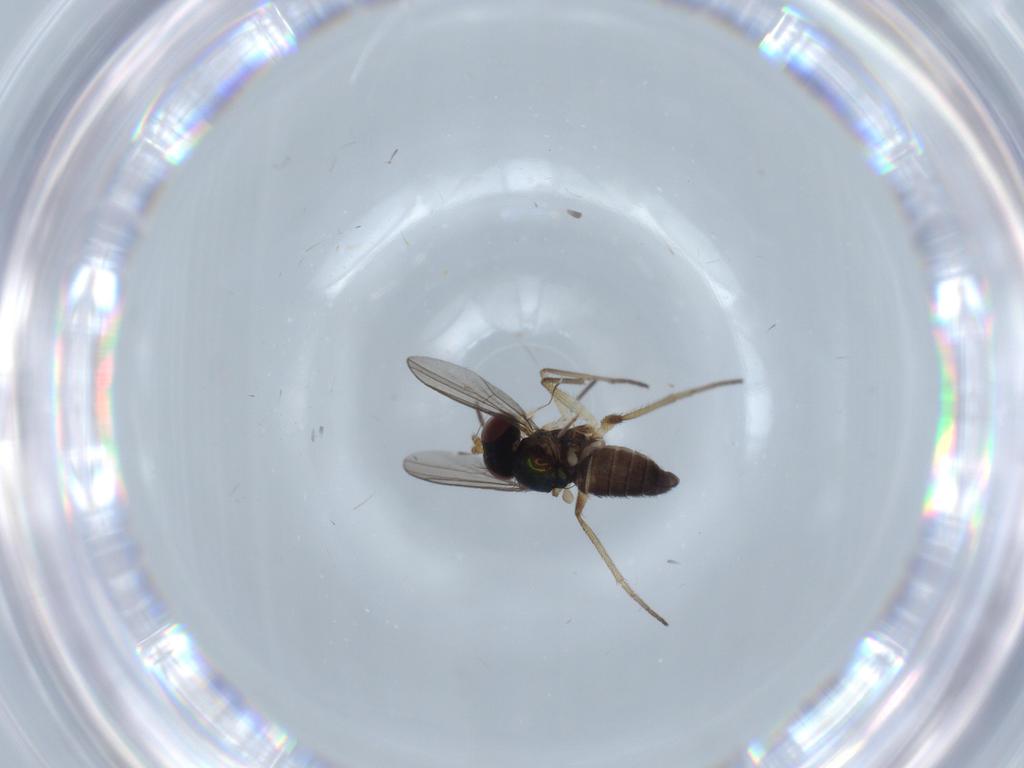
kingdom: Animalia
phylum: Arthropoda
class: Insecta
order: Diptera
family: Dolichopodidae
